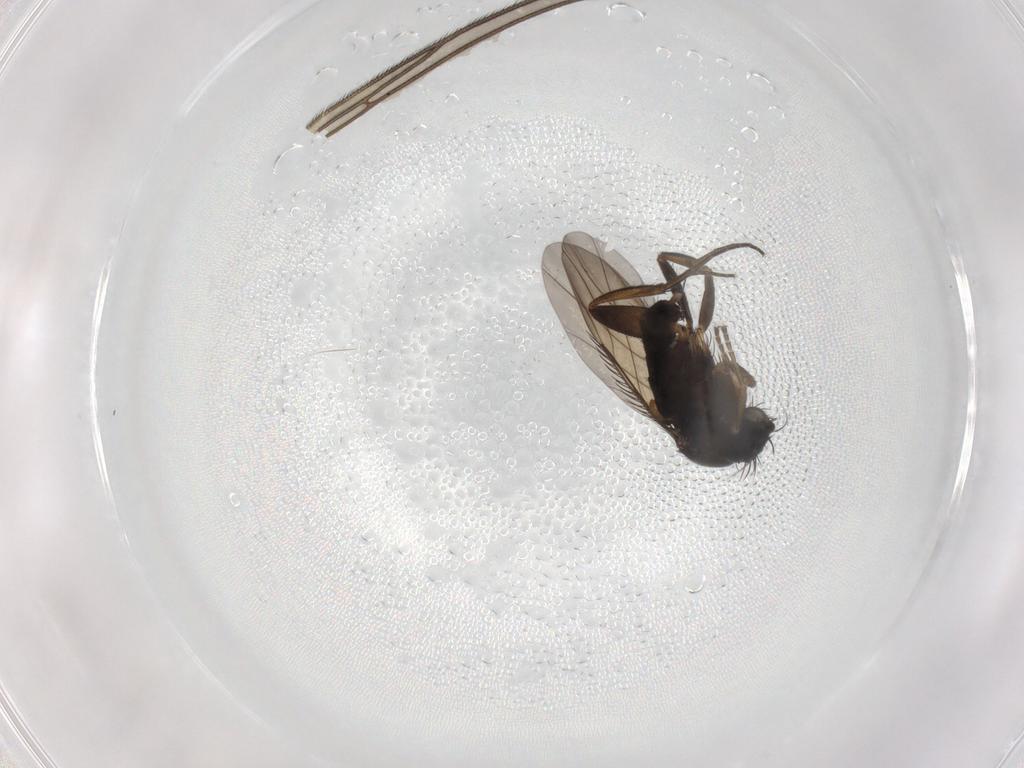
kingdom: Animalia
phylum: Arthropoda
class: Insecta
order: Diptera
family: Phoridae
